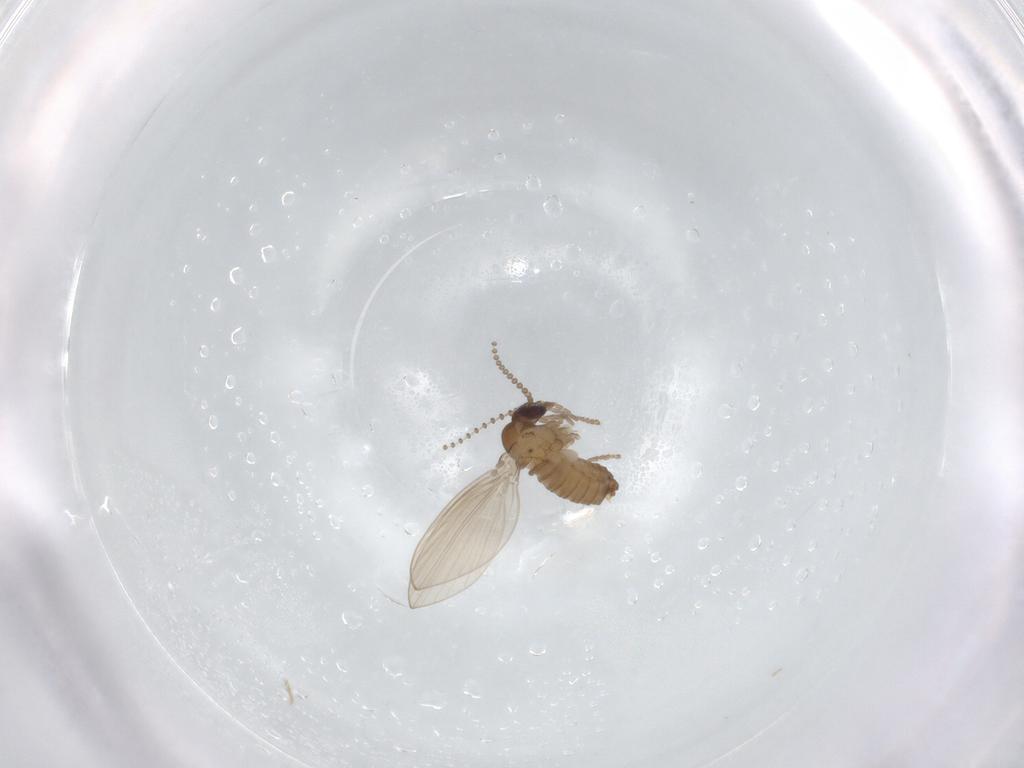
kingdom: Animalia
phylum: Arthropoda
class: Insecta
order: Diptera
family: Psychodidae
